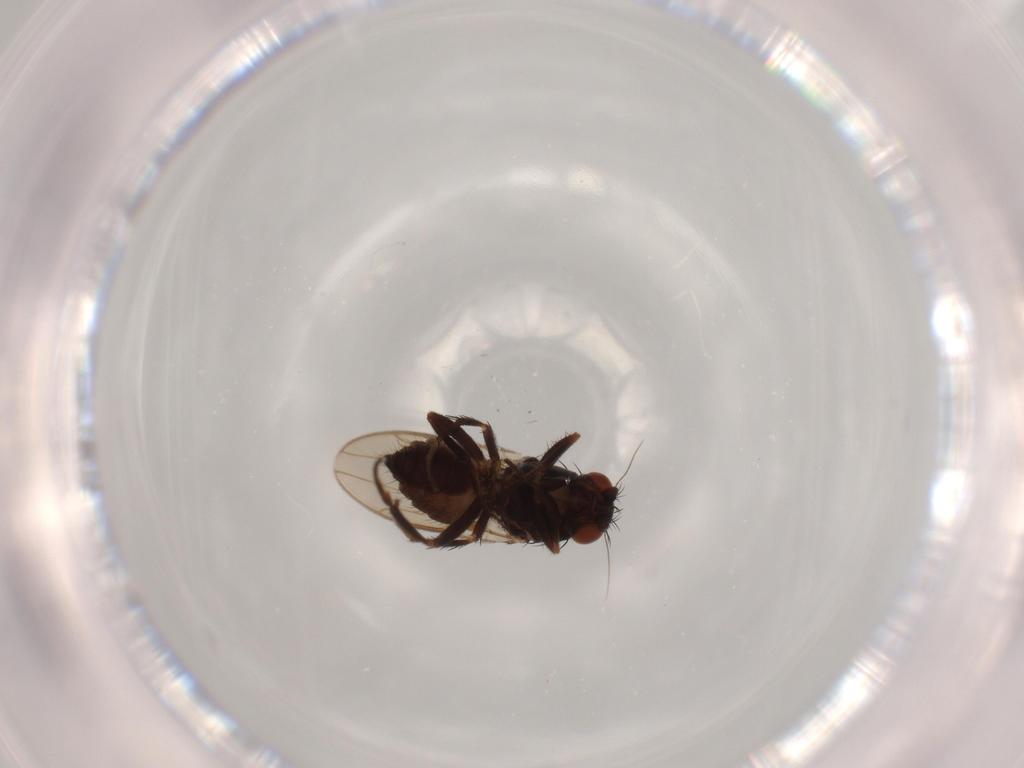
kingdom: Animalia
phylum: Arthropoda
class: Insecta
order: Diptera
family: Sphaeroceridae
